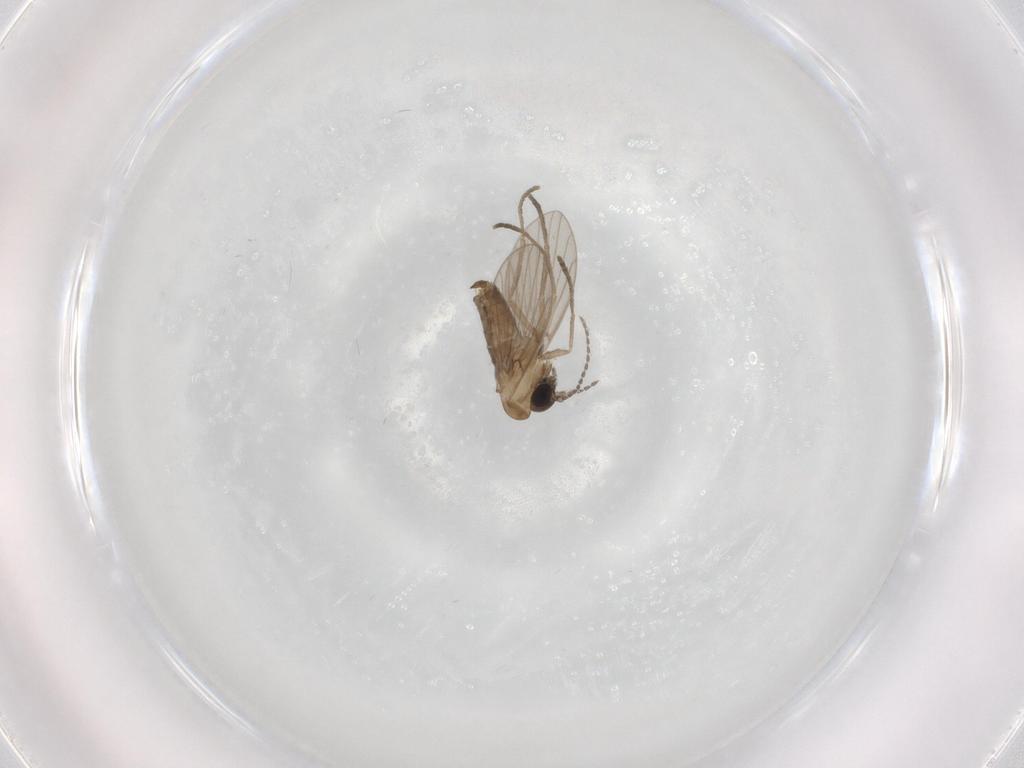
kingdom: Animalia
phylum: Arthropoda
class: Insecta
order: Diptera
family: Psychodidae
